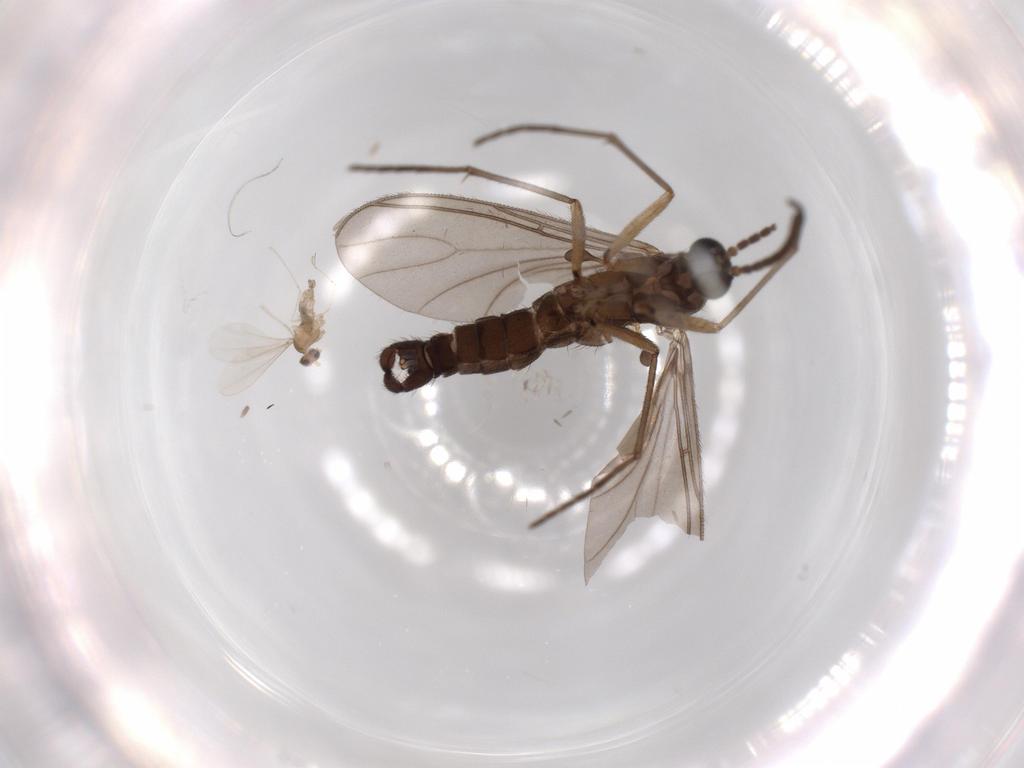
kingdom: Animalia
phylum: Arthropoda
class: Insecta
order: Diptera
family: Sciaridae
